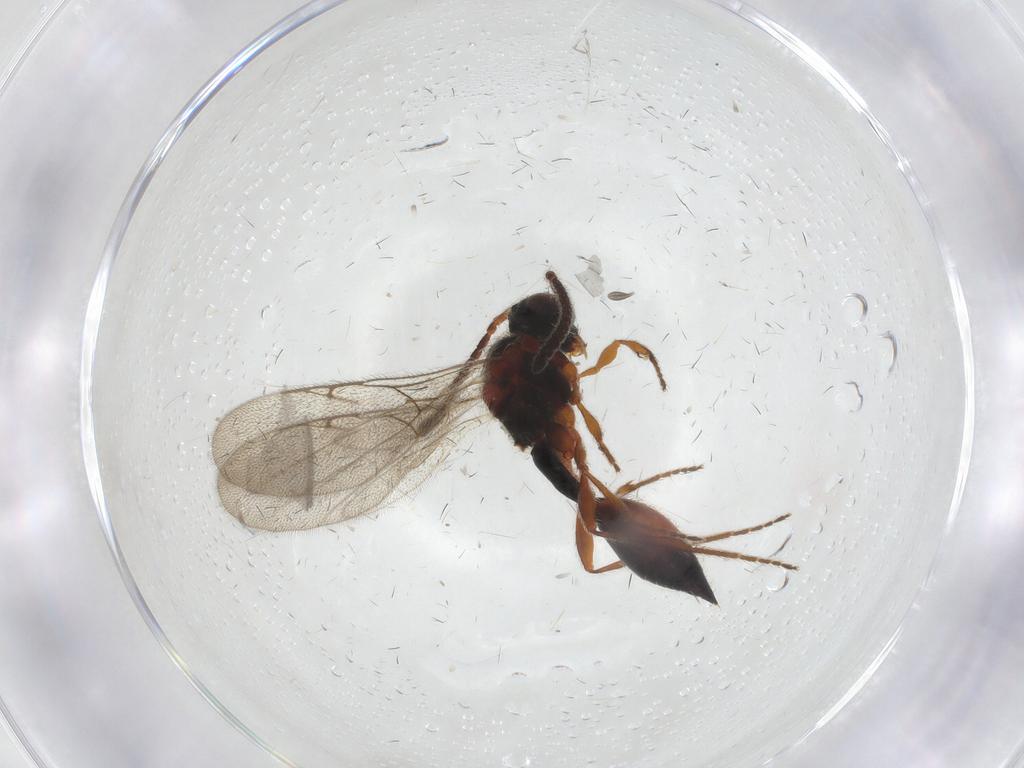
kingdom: Animalia
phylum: Arthropoda
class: Insecta
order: Hymenoptera
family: Diapriidae
